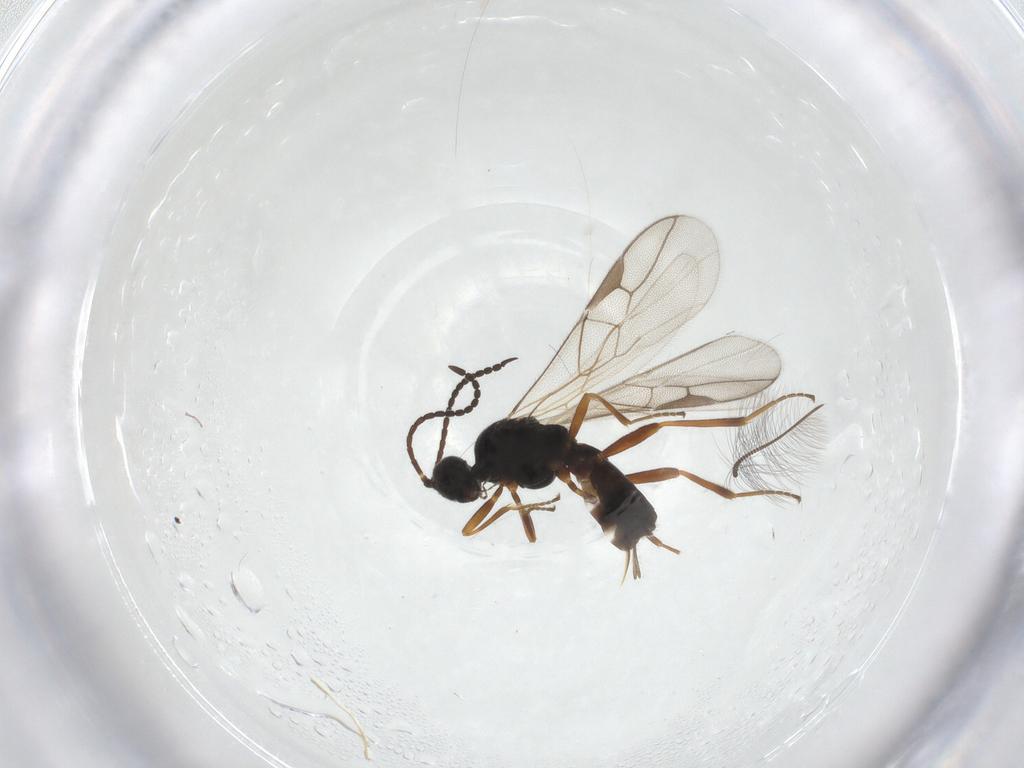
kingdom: Animalia
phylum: Arthropoda
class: Insecta
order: Hymenoptera
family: Braconidae
